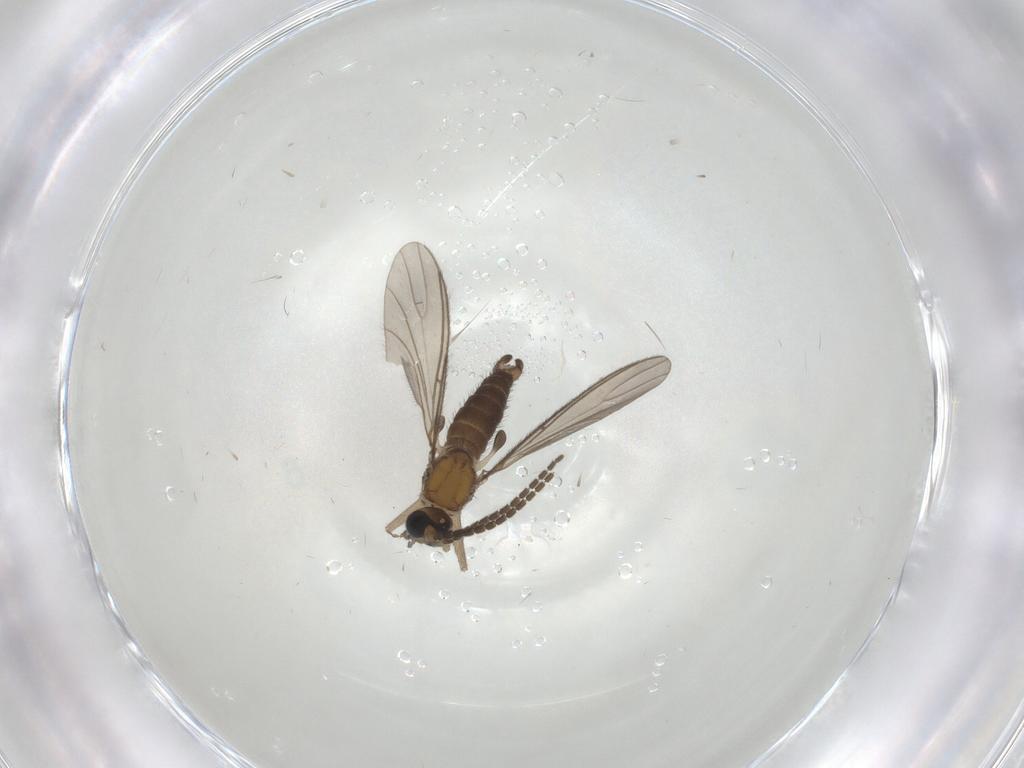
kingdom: Animalia
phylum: Arthropoda
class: Insecta
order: Diptera
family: Sciaridae
